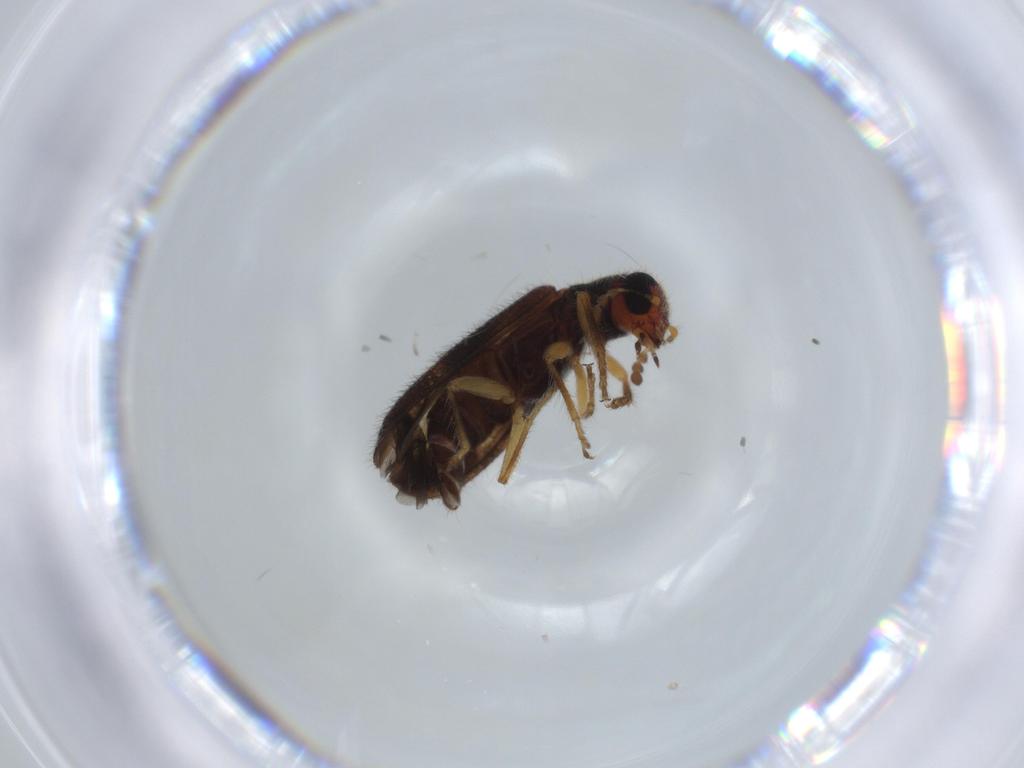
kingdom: Animalia
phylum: Arthropoda
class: Insecta
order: Coleoptera
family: Cleridae
